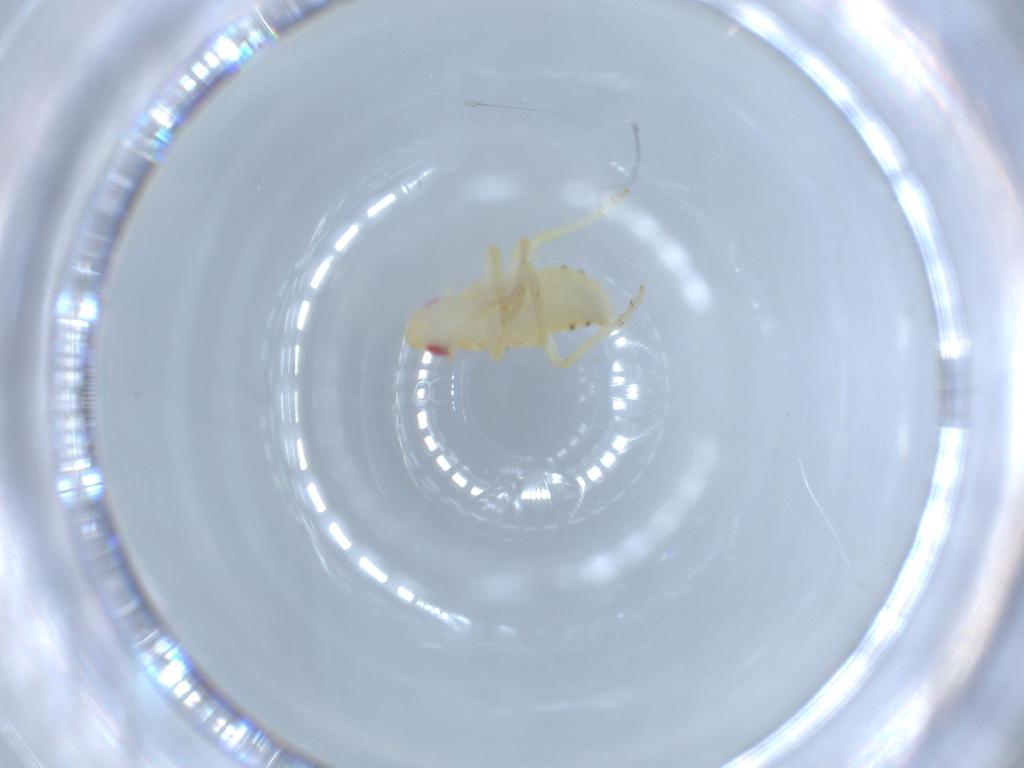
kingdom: Animalia
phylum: Arthropoda
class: Insecta
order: Hemiptera
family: Tropiduchidae
